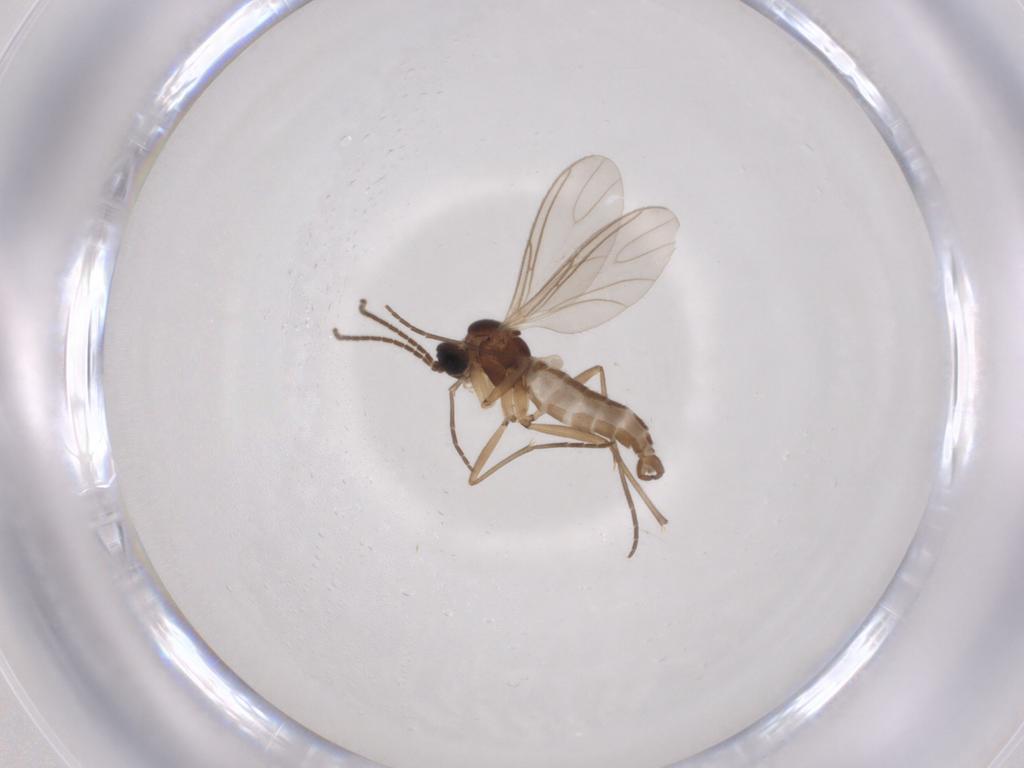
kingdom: Animalia
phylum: Arthropoda
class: Insecta
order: Diptera
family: Sciaridae
